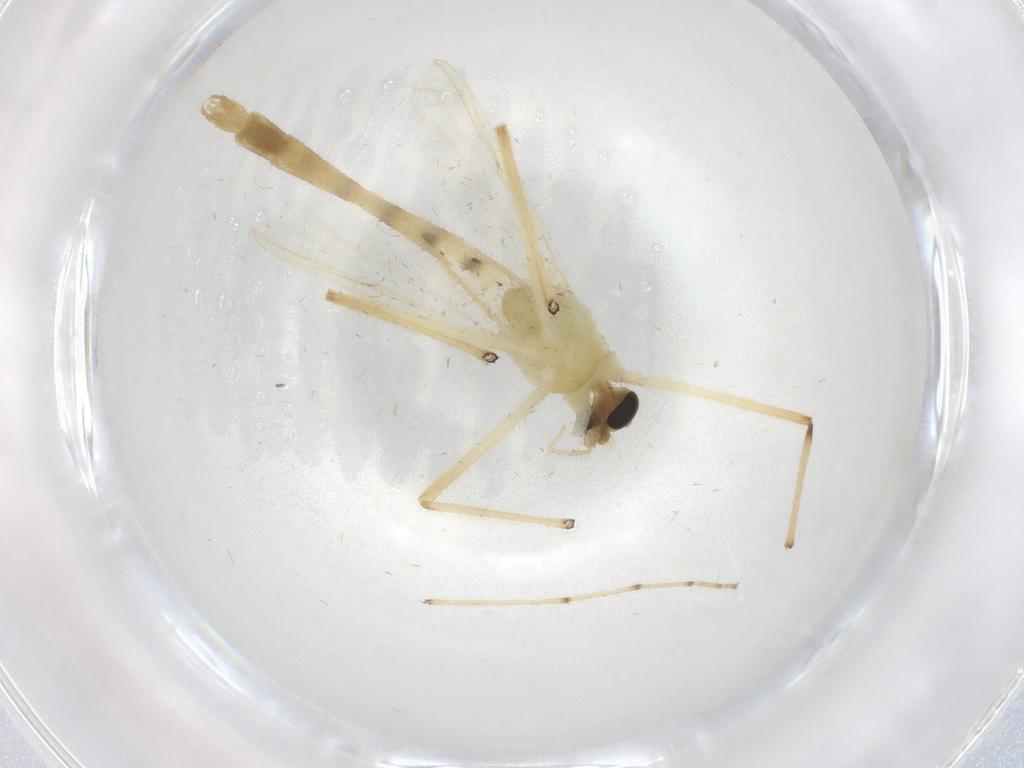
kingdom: Animalia
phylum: Arthropoda
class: Insecta
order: Diptera
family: Chironomidae
